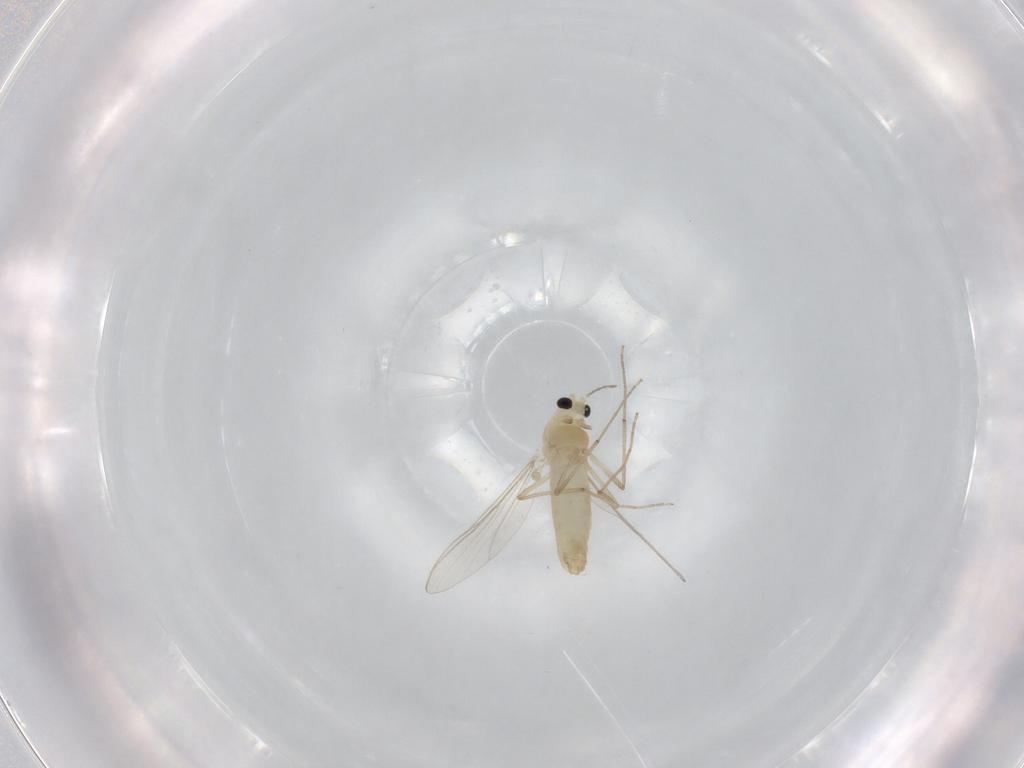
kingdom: Animalia
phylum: Arthropoda
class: Insecta
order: Diptera
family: Chironomidae
